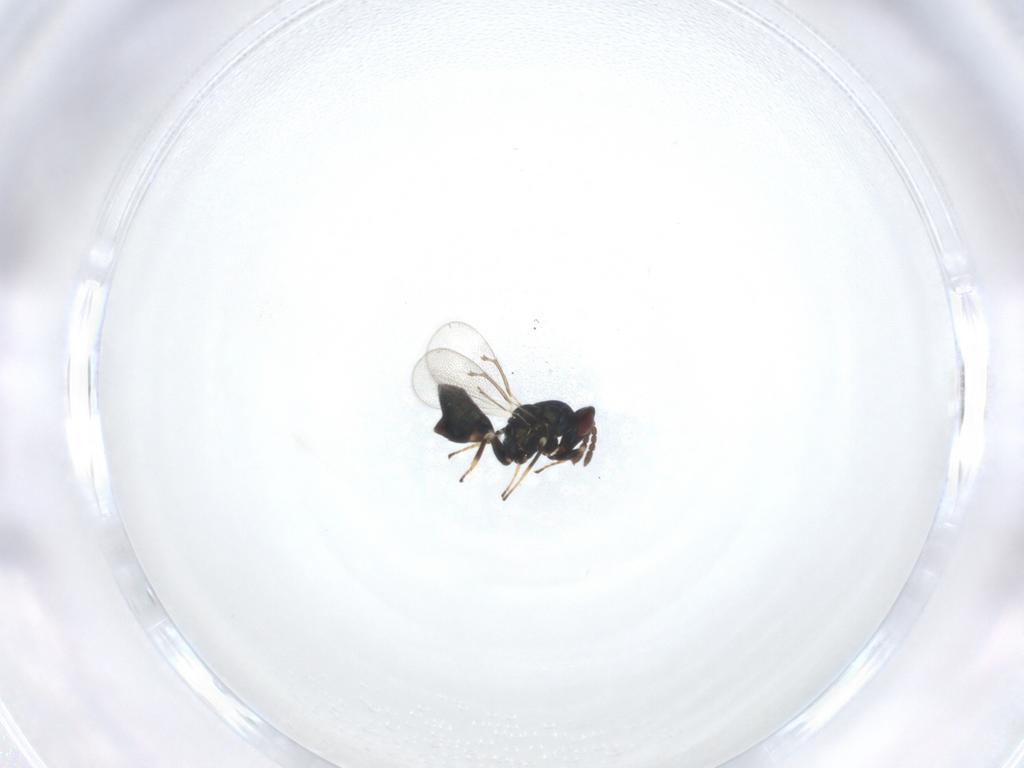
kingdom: Animalia
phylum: Arthropoda
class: Insecta
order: Hymenoptera
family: Eulophidae
